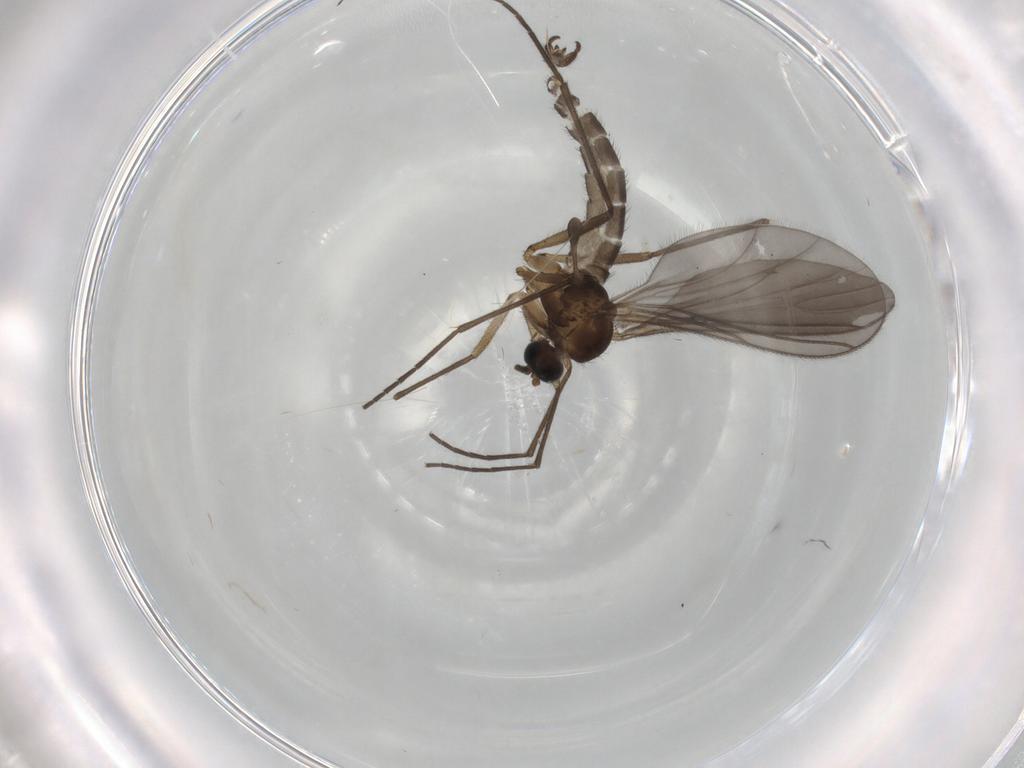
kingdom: Animalia
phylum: Arthropoda
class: Insecta
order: Diptera
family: Sciaridae
